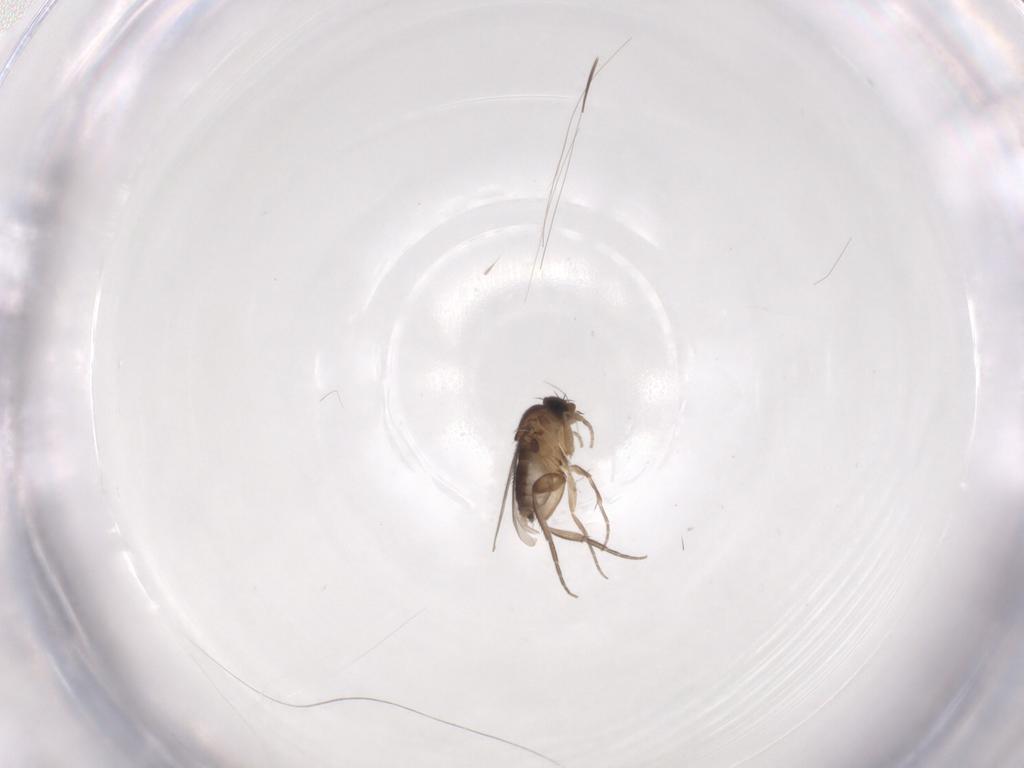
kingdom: Animalia
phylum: Arthropoda
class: Insecta
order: Diptera
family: Phoridae
